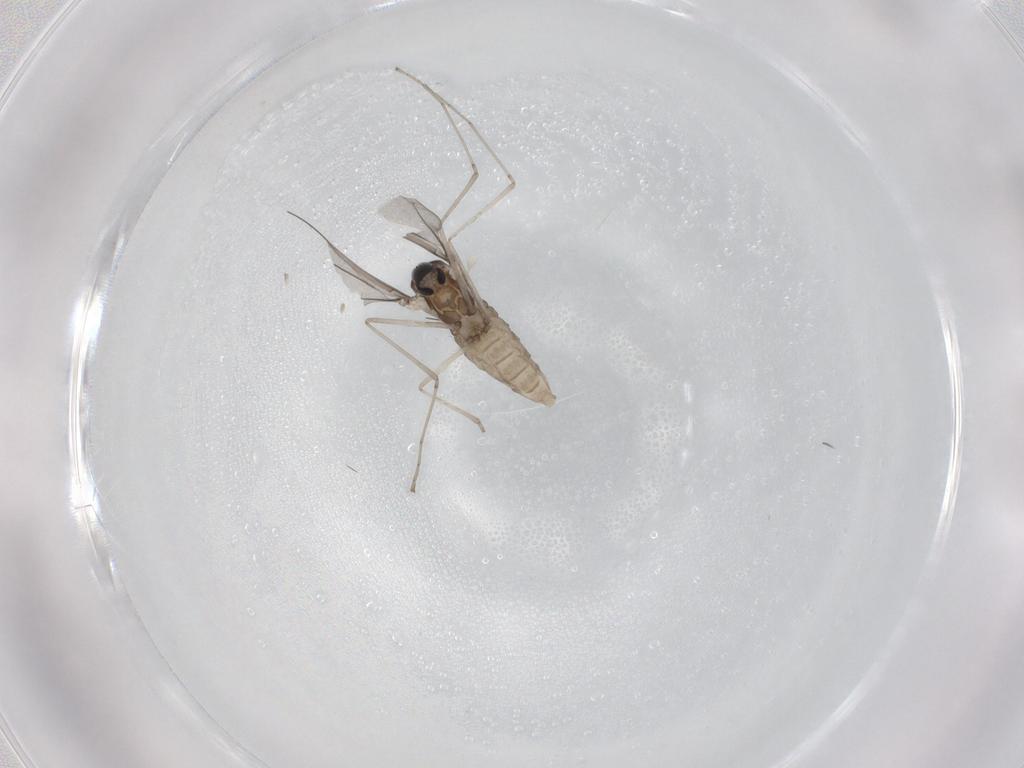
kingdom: Animalia
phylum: Arthropoda
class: Insecta
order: Diptera
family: Cecidomyiidae
